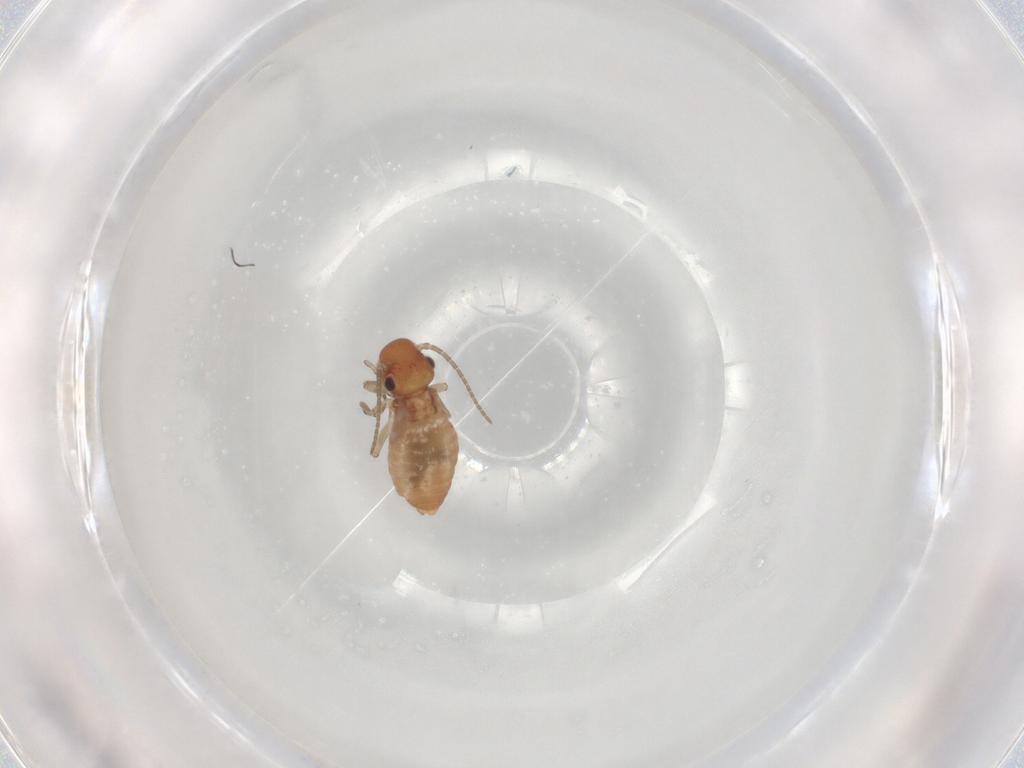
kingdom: Animalia
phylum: Arthropoda
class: Insecta
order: Psocodea
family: Caeciliusidae
